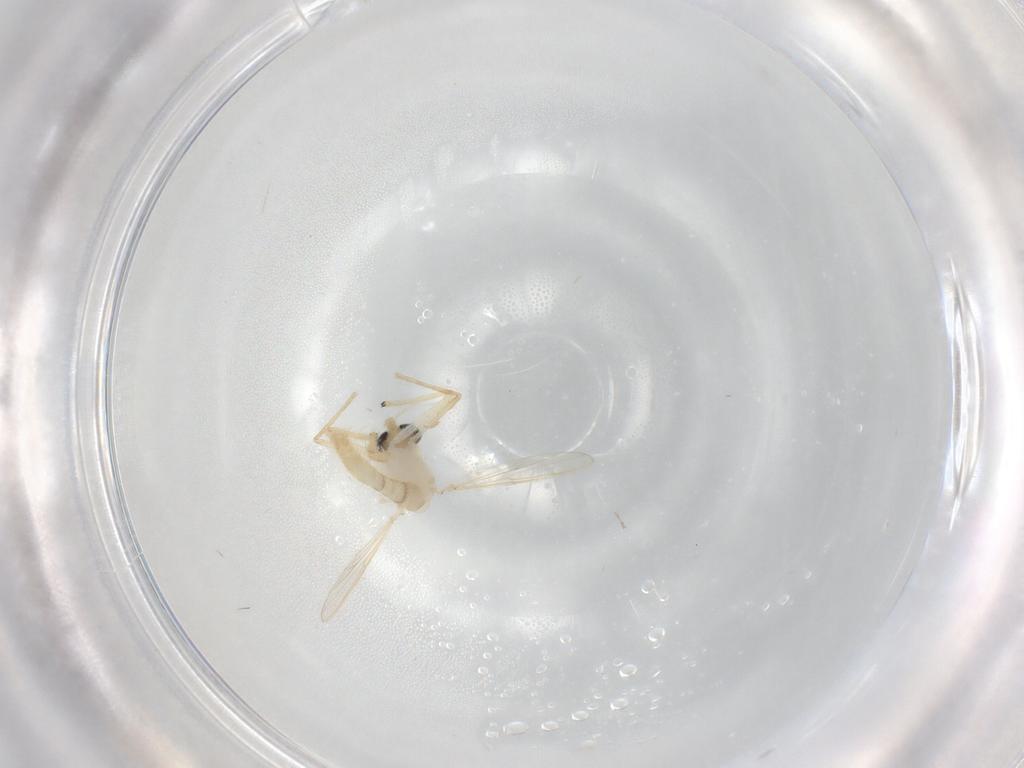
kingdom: Animalia
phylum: Arthropoda
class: Insecta
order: Diptera
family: Chironomidae
